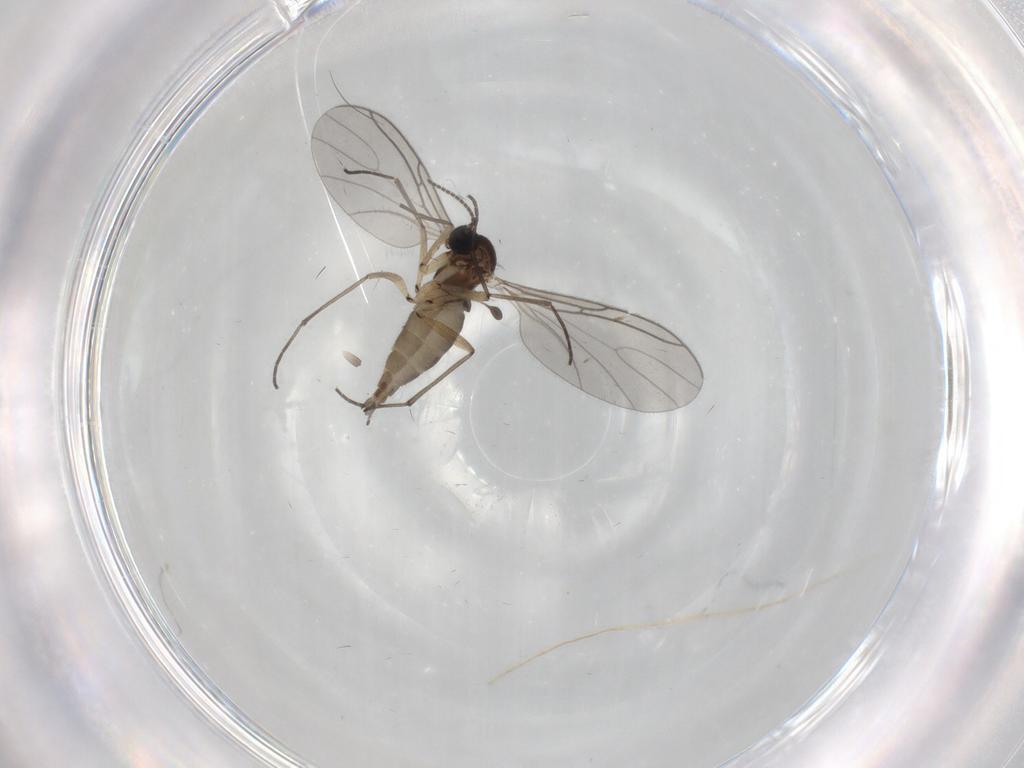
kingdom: Animalia
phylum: Arthropoda
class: Insecta
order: Diptera
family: Sciaridae
